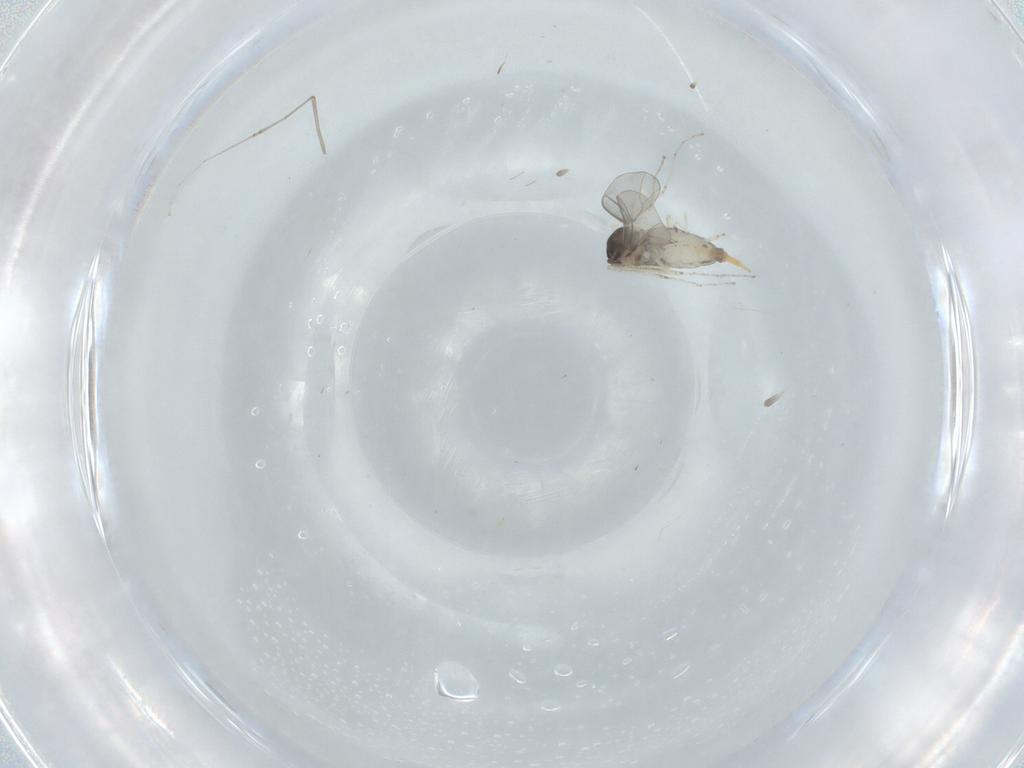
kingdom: Animalia
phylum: Arthropoda
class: Insecta
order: Diptera
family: Cecidomyiidae
